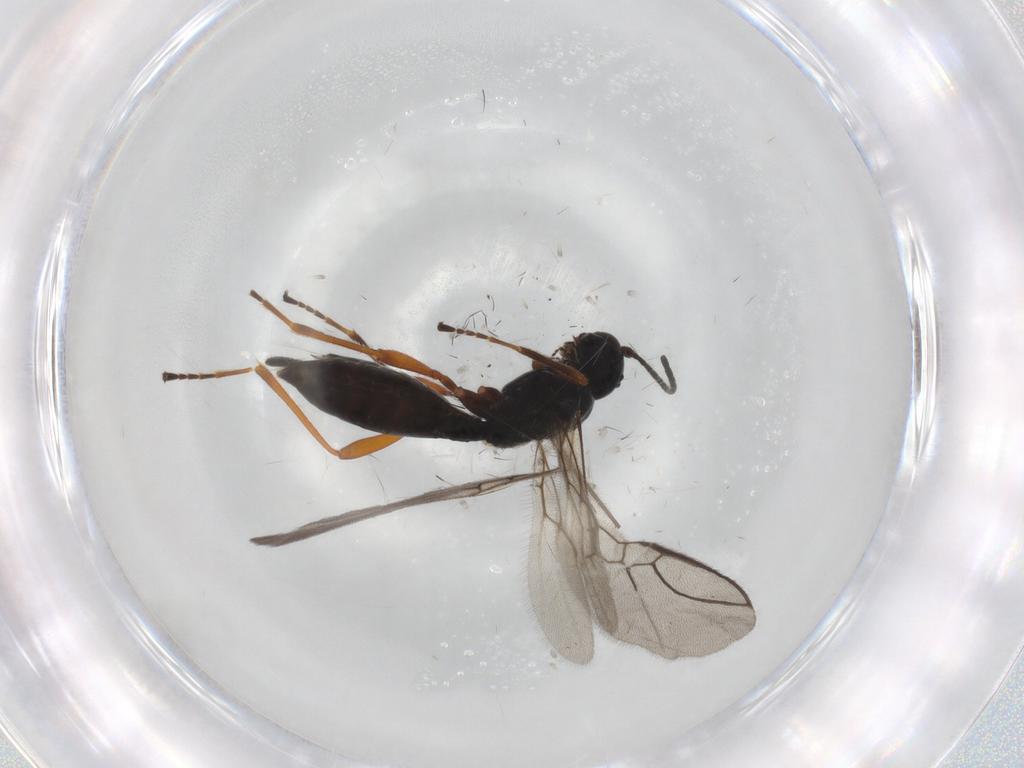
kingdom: Animalia
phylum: Arthropoda
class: Insecta
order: Hymenoptera
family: Braconidae
